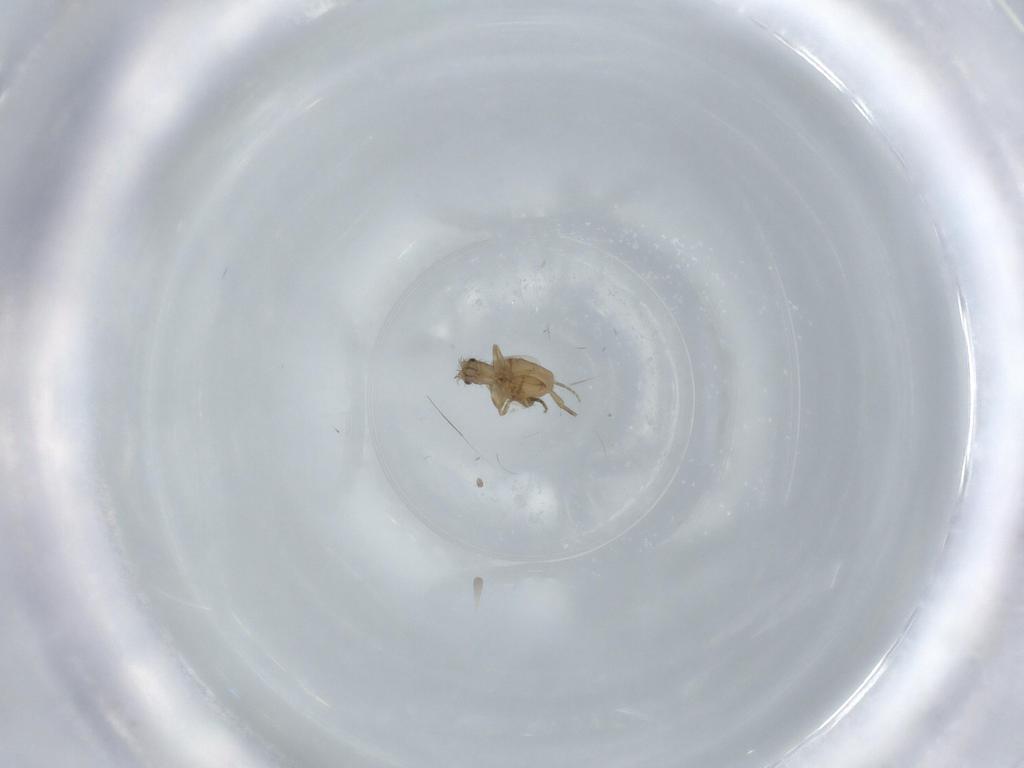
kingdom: Animalia
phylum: Arthropoda
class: Insecta
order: Diptera
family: Phoridae
